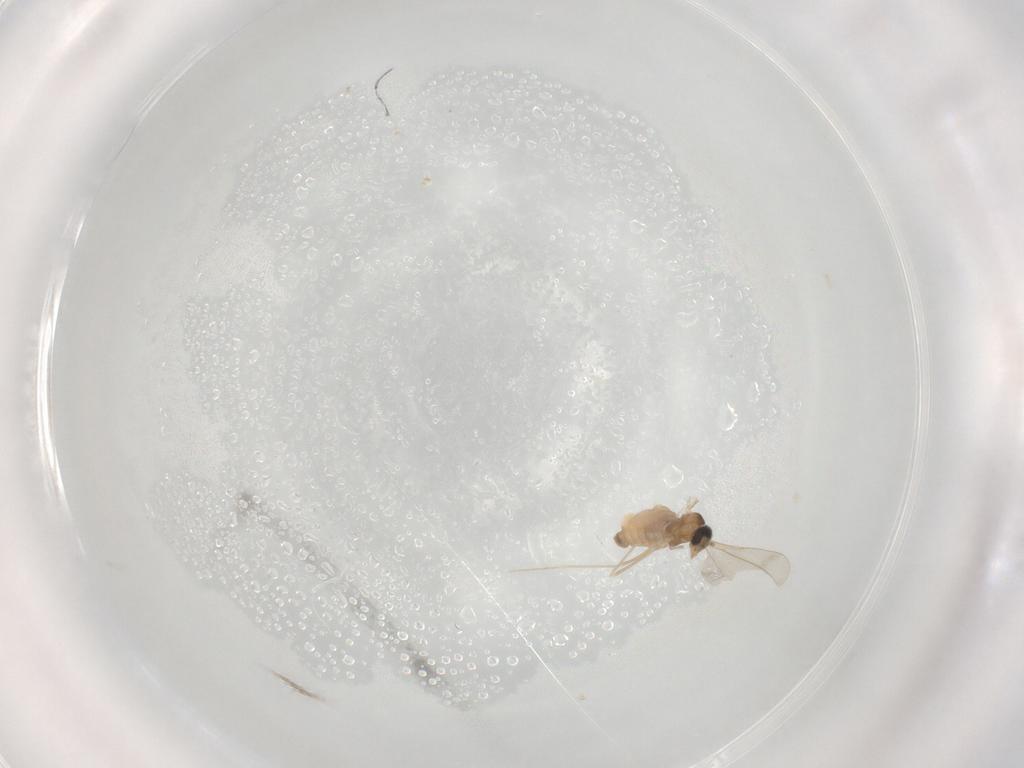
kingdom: Animalia
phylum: Arthropoda
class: Insecta
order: Diptera
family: Cecidomyiidae
